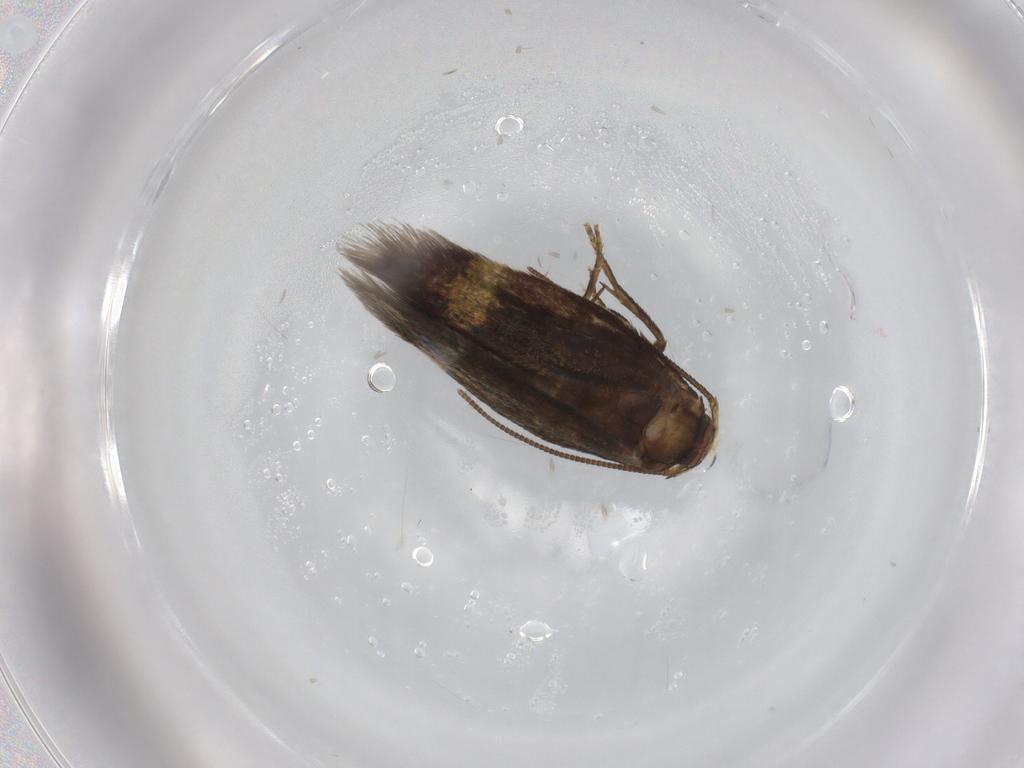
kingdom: Animalia
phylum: Arthropoda
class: Insecta
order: Lepidoptera
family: Nepticulidae
